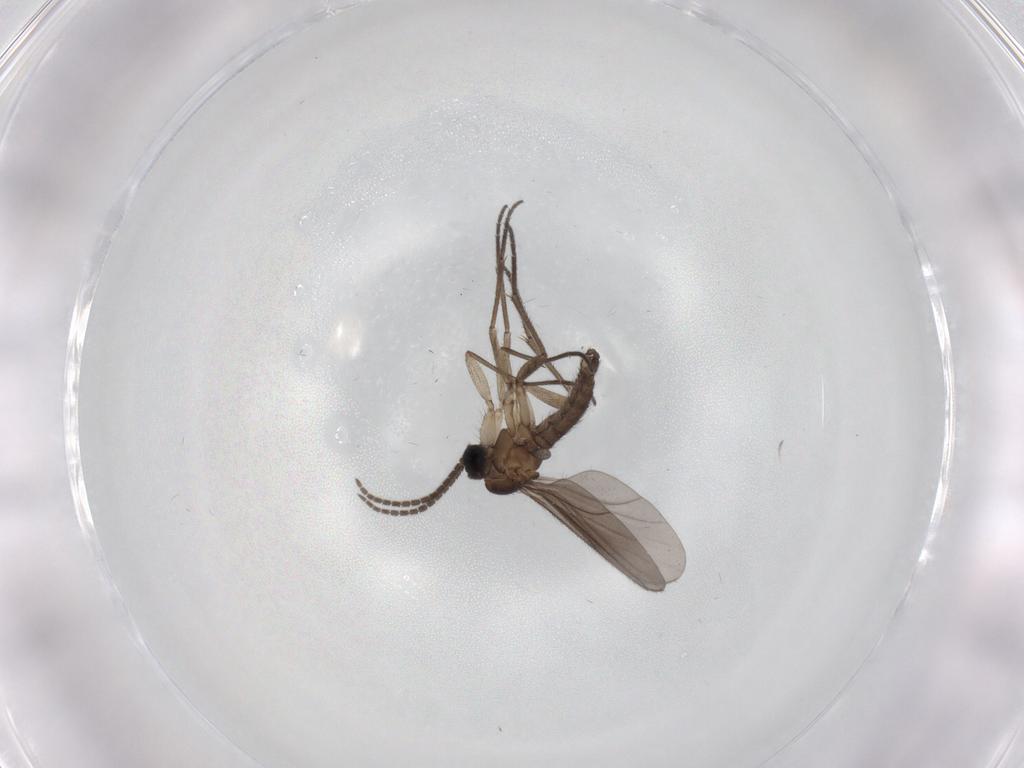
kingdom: Animalia
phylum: Arthropoda
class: Insecta
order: Diptera
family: Sciaridae
